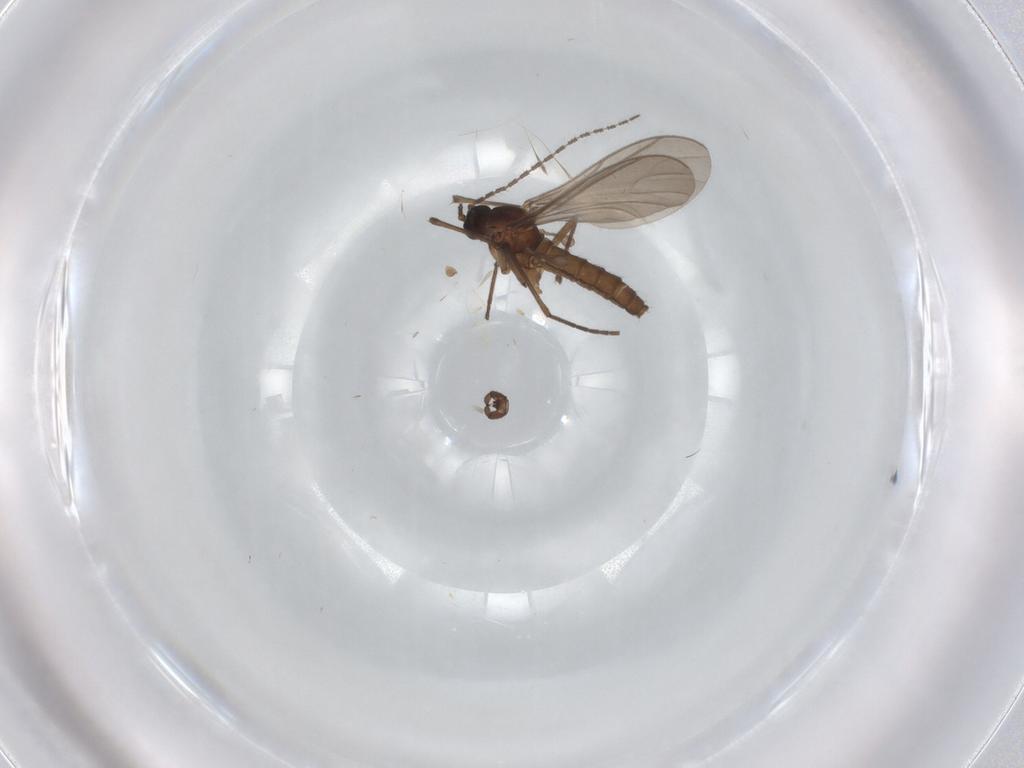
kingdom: Animalia
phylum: Arthropoda
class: Insecta
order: Diptera
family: Sciaridae
